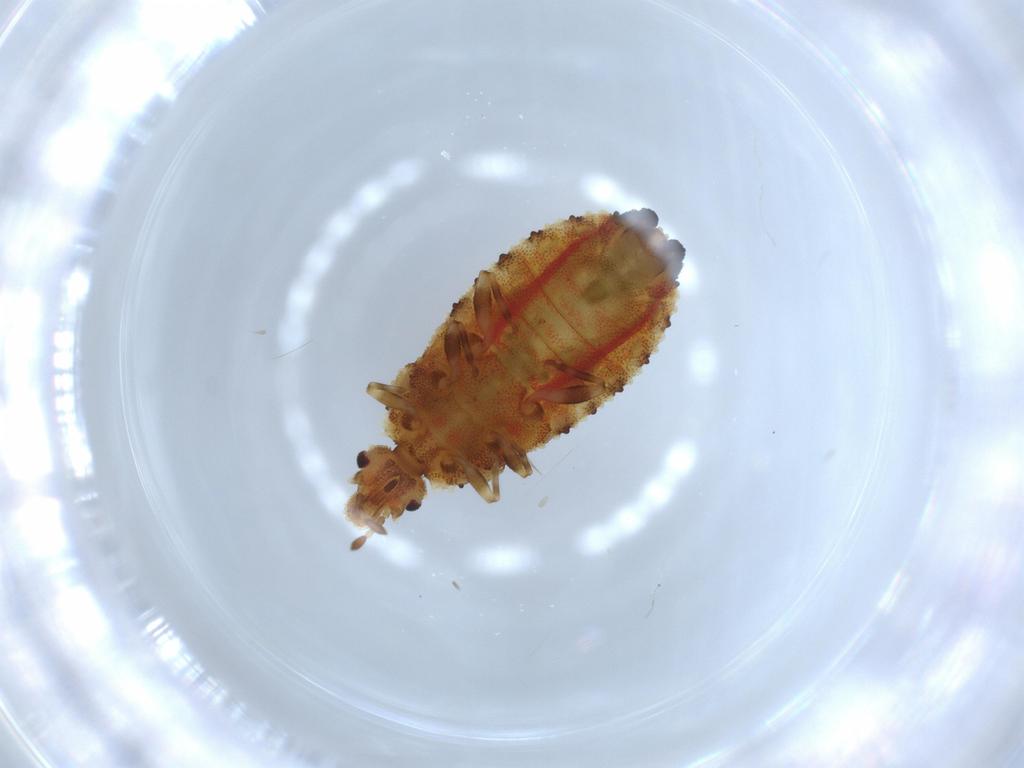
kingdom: Animalia
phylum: Arthropoda
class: Insecta
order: Hemiptera
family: Aradidae
